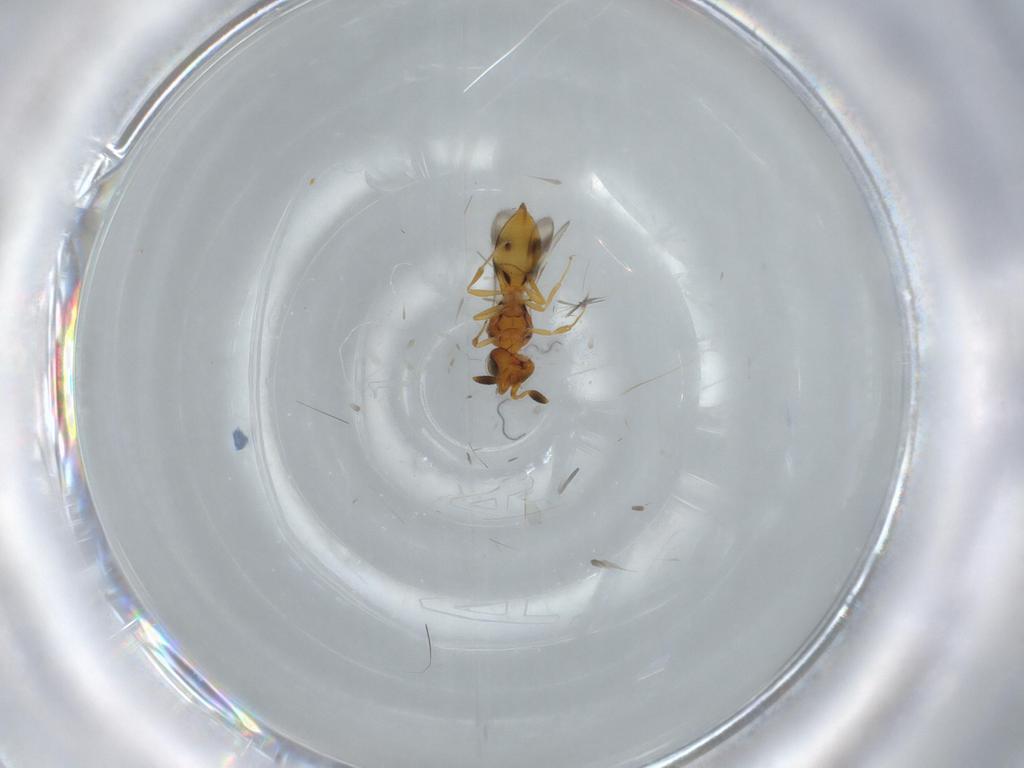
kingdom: Animalia
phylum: Arthropoda
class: Insecta
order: Hymenoptera
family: Scelionidae
